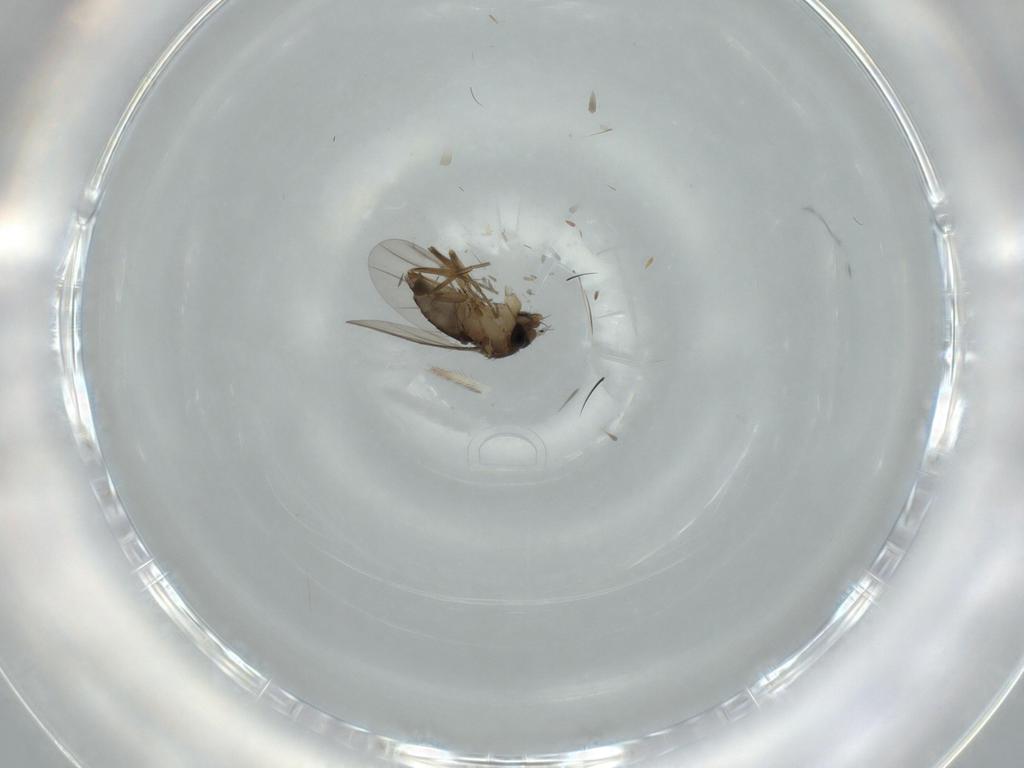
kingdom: Animalia
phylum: Arthropoda
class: Insecta
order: Diptera
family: Phoridae
